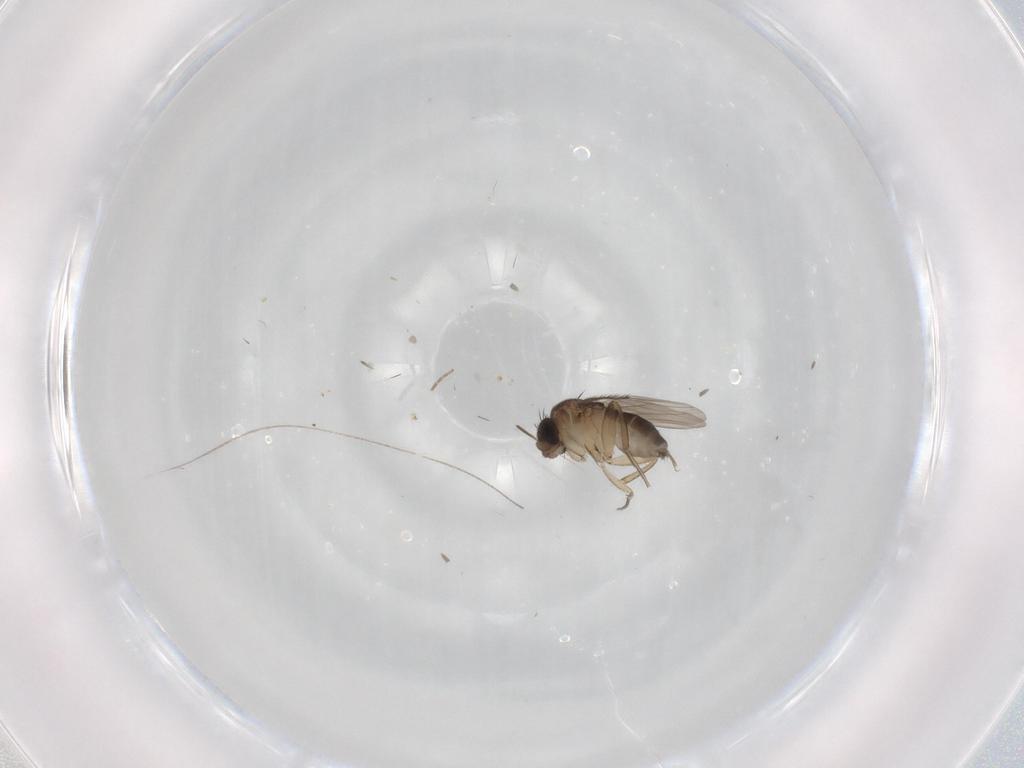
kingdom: Animalia
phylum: Arthropoda
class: Insecta
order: Diptera
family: Phoridae
